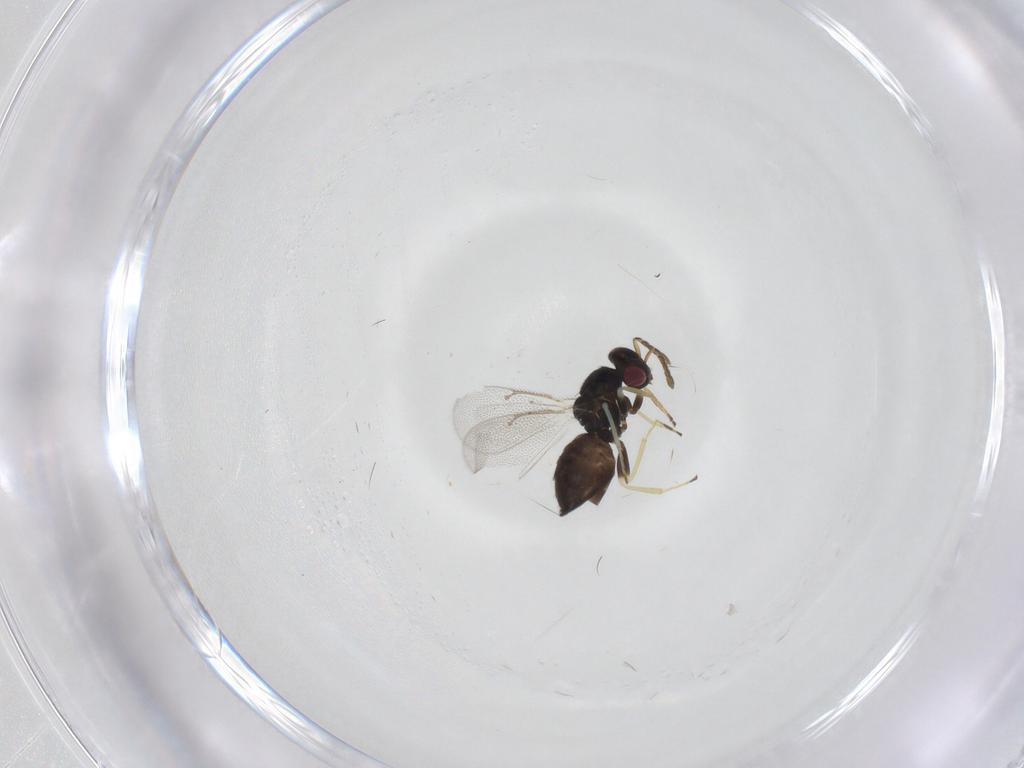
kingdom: Animalia
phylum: Arthropoda
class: Insecta
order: Hymenoptera
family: Eulophidae
